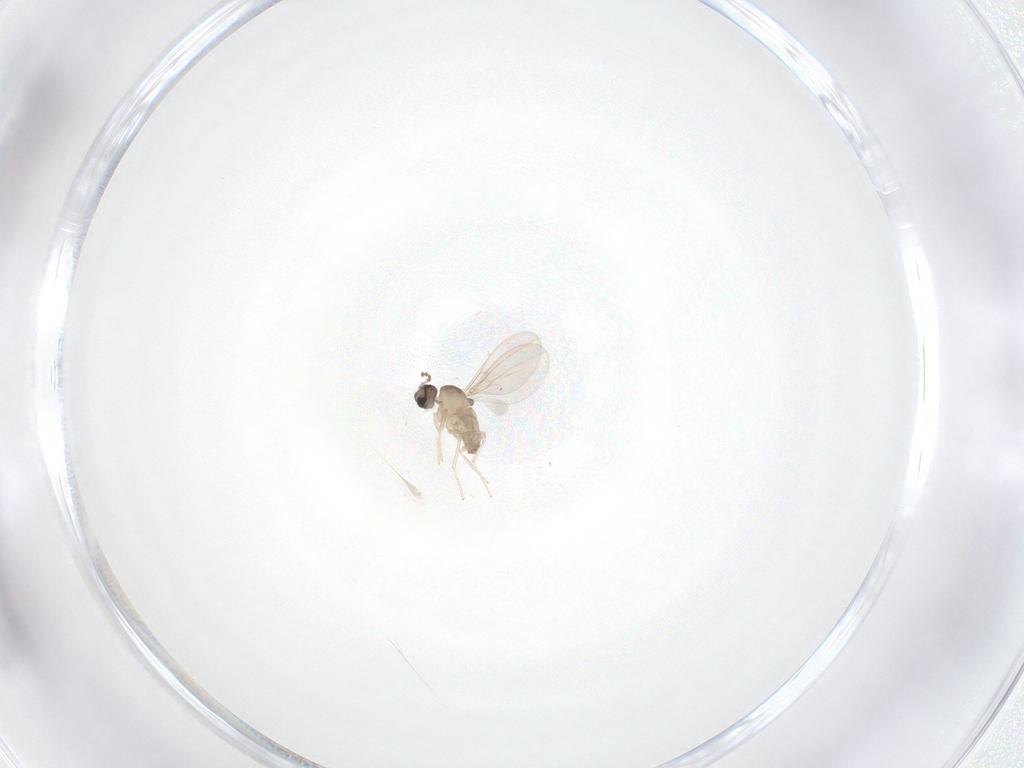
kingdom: Animalia
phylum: Arthropoda
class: Insecta
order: Diptera
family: Cecidomyiidae
